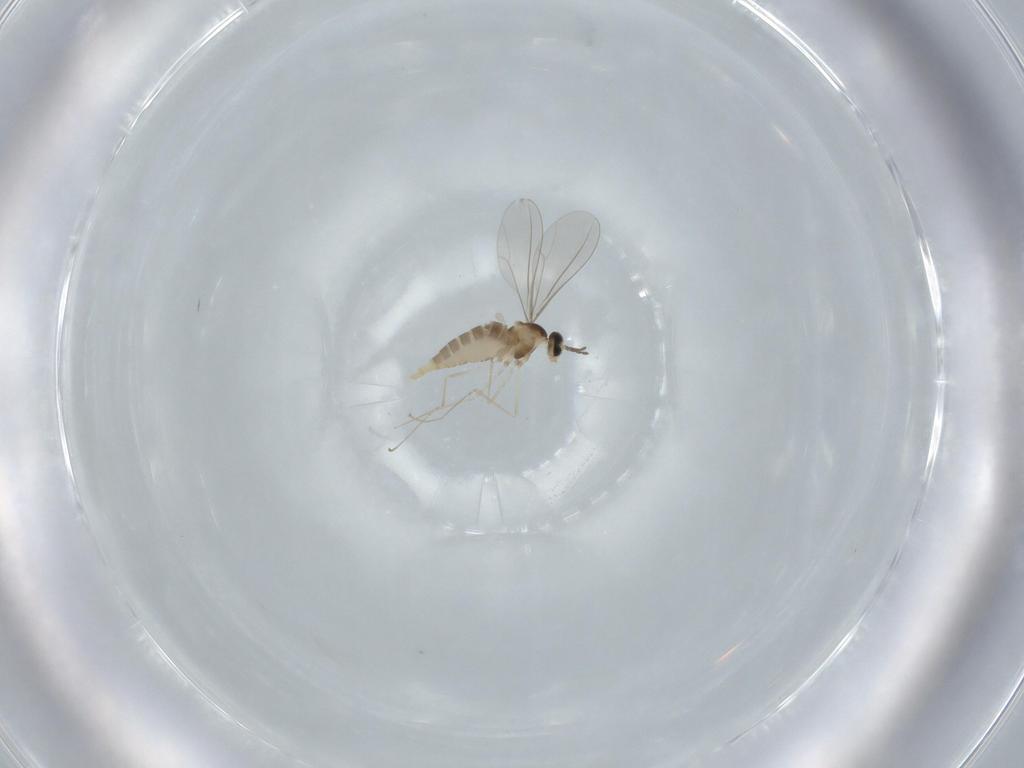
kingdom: Animalia
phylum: Arthropoda
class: Insecta
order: Diptera
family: Cecidomyiidae
